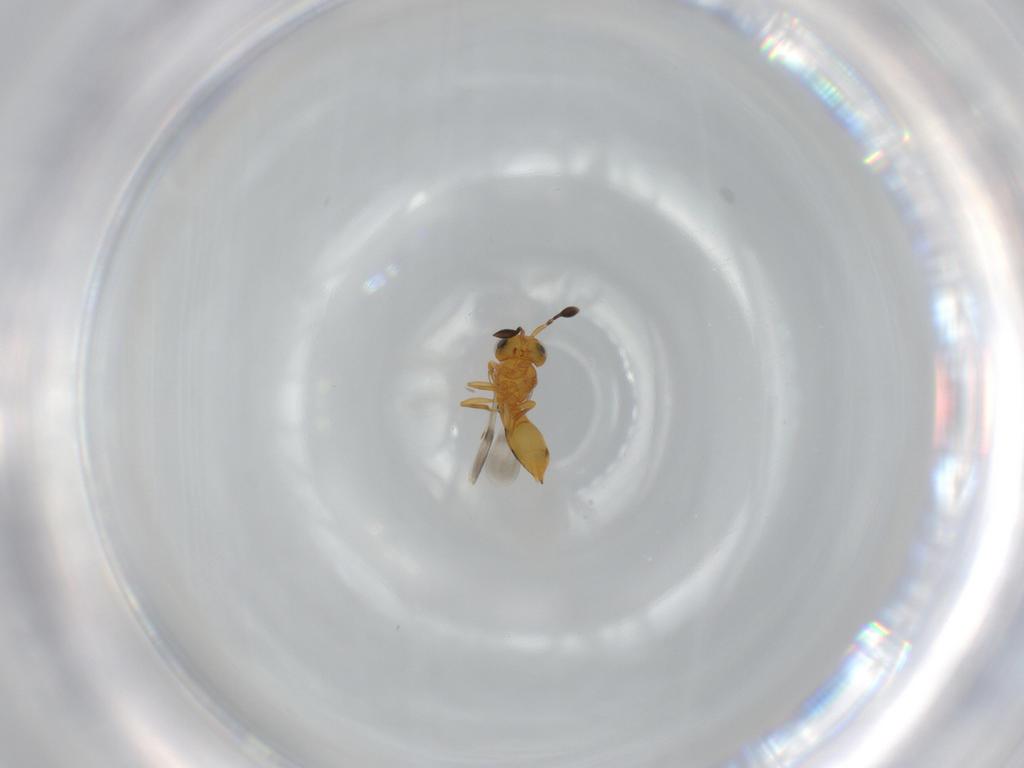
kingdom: Animalia
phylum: Arthropoda
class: Insecta
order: Hymenoptera
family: Scelionidae
